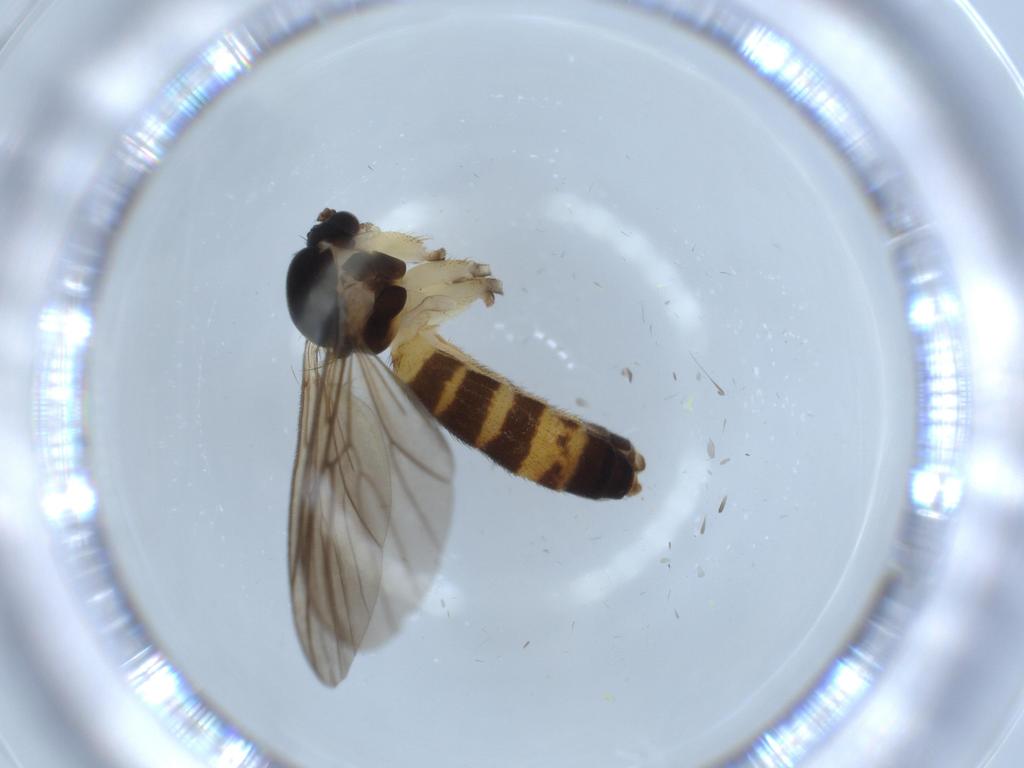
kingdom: Animalia
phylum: Arthropoda
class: Insecta
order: Diptera
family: Mycetophilidae
